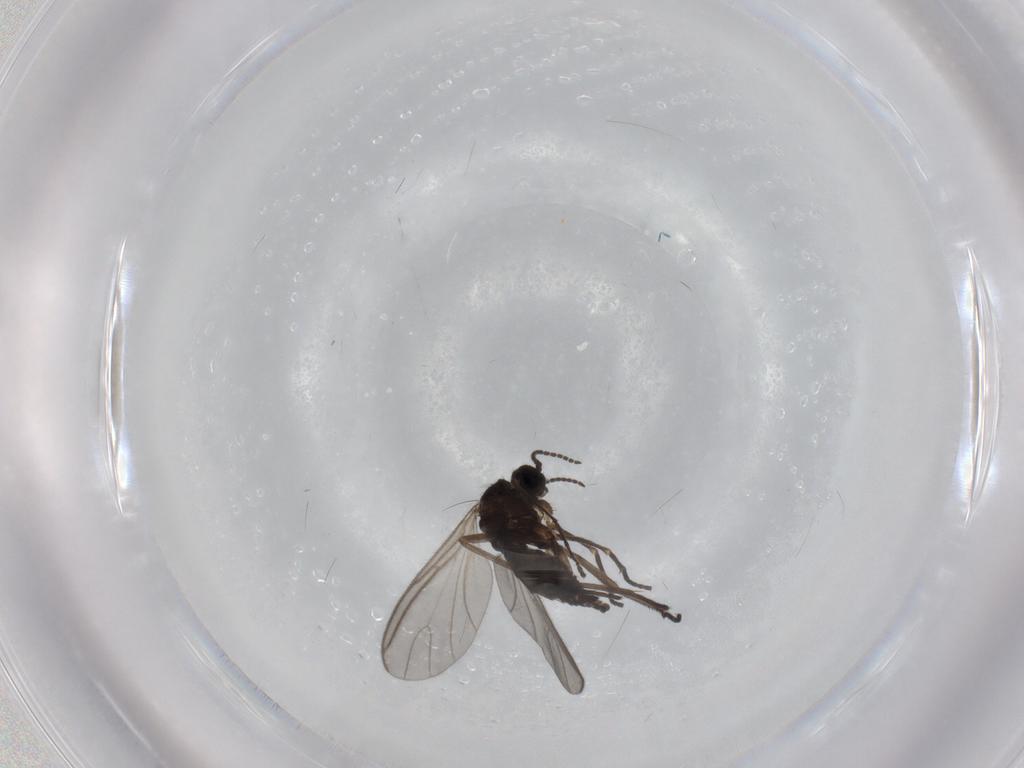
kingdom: Animalia
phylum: Arthropoda
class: Insecta
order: Diptera
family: Sciaridae
